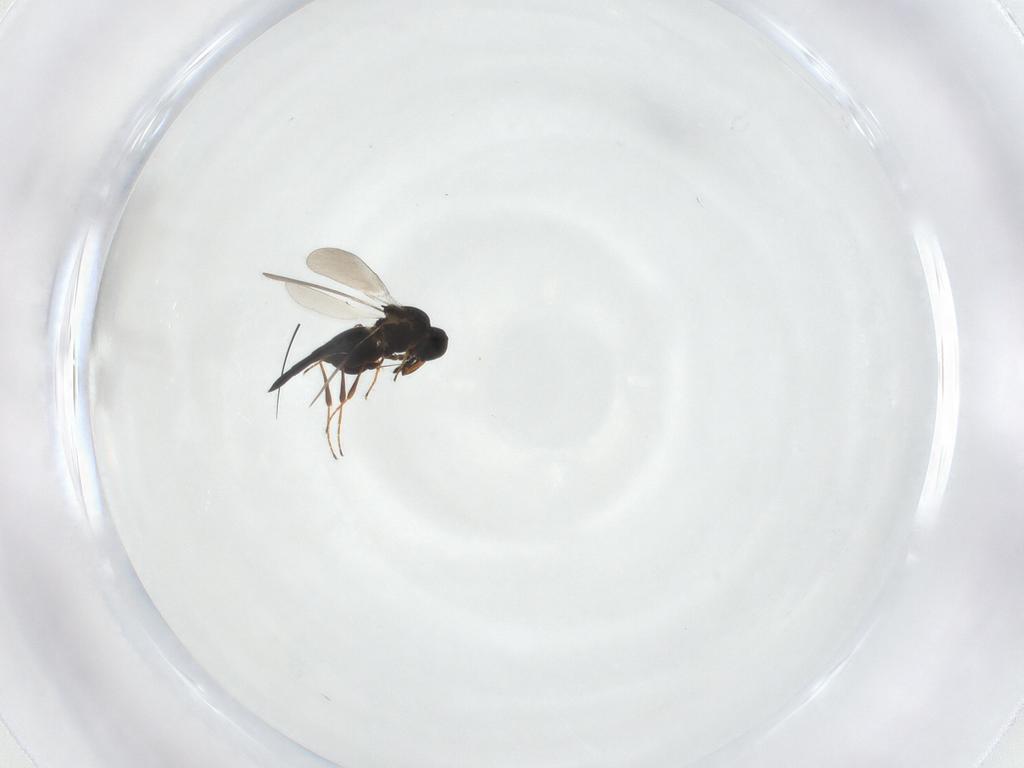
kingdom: Animalia
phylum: Arthropoda
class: Insecta
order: Hymenoptera
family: Platygastridae
